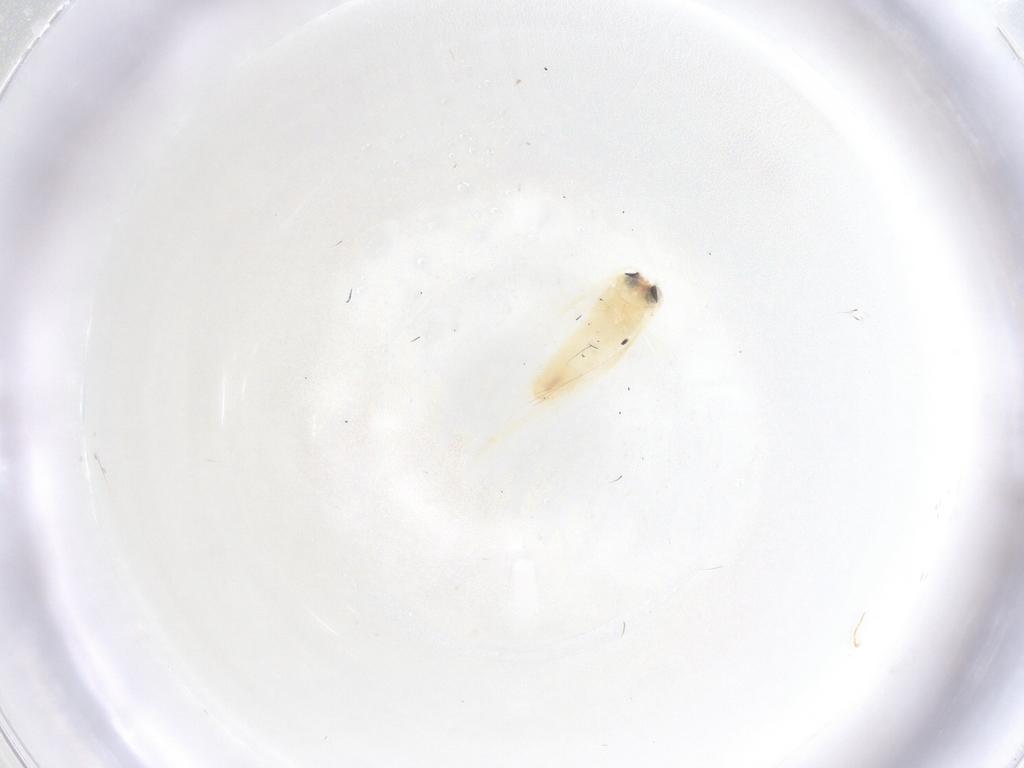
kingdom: Animalia
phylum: Arthropoda
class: Insecta
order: Lepidoptera
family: Nepticulidae
